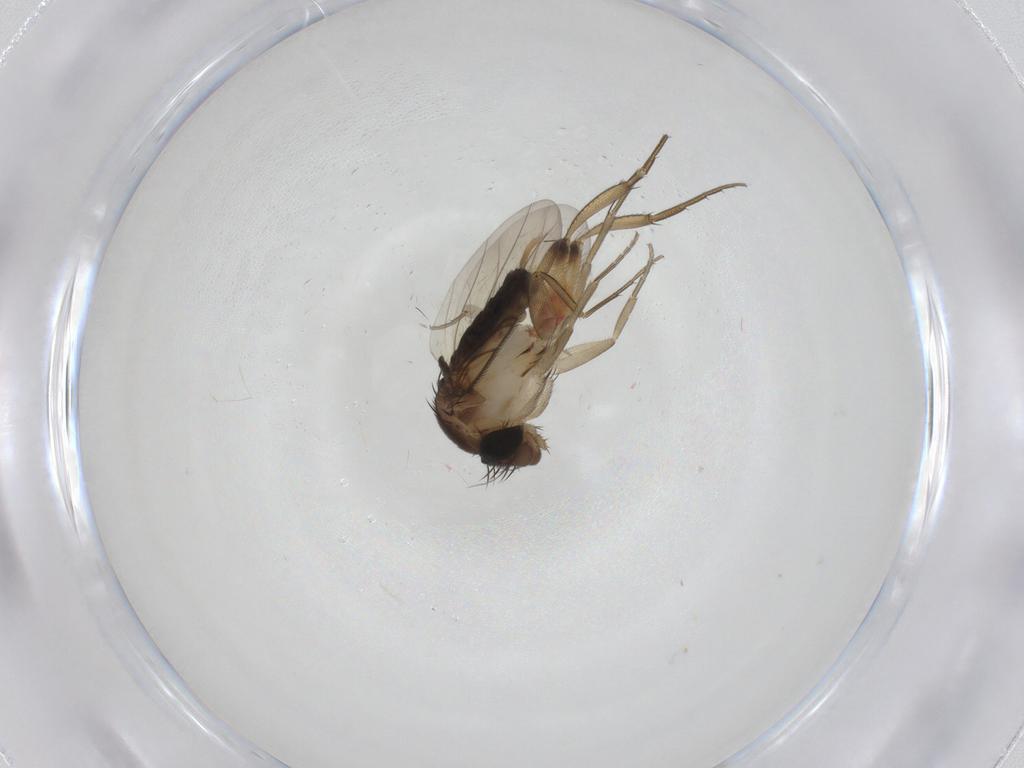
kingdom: Animalia
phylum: Arthropoda
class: Insecta
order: Diptera
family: Phoridae
